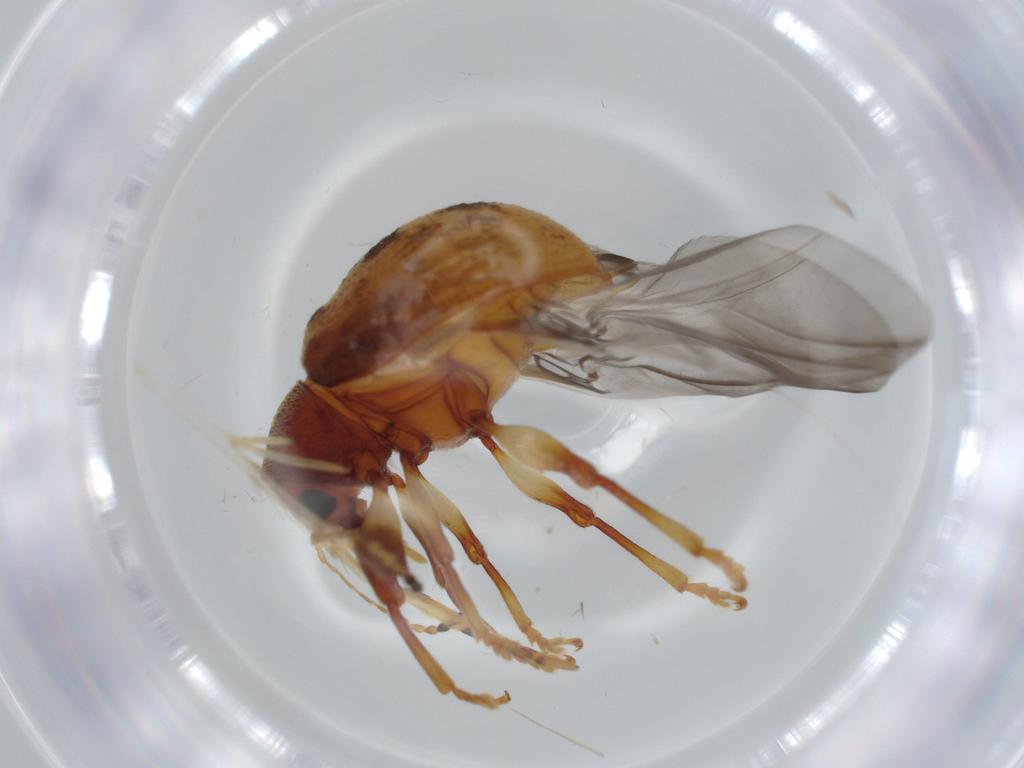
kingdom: Animalia
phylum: Arthropoda
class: Insecta
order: Coleoptera
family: Chrysomelidae
